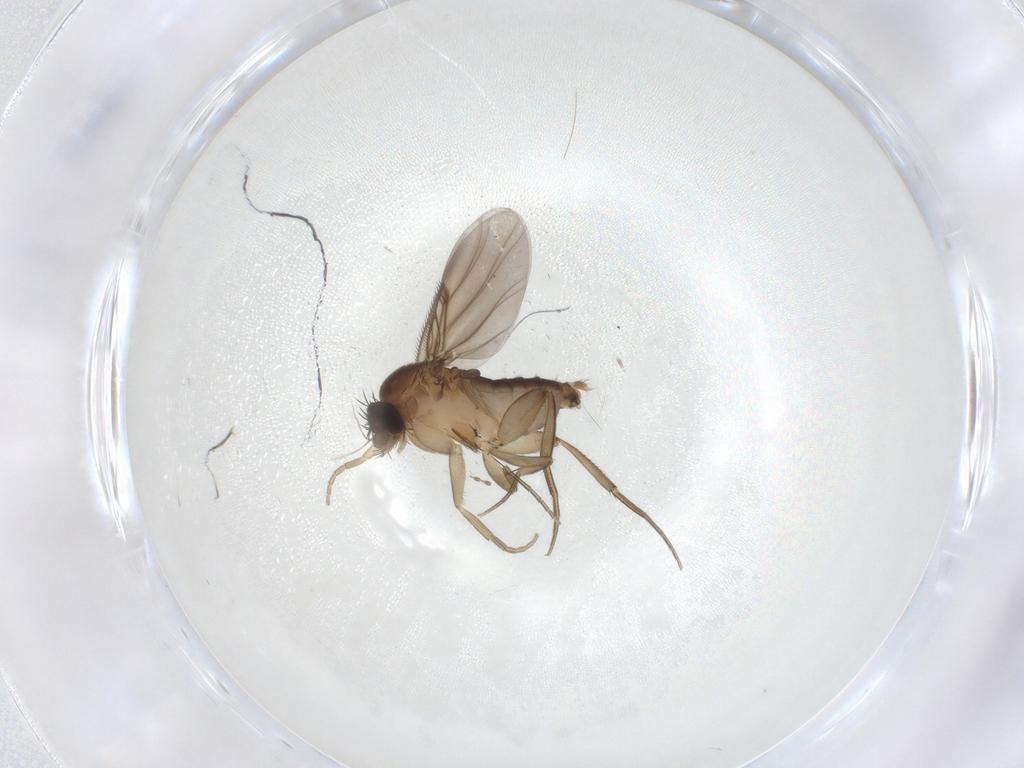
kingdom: Animalia
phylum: Arthropoda
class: Insecta
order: Diptera
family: Phoridae
